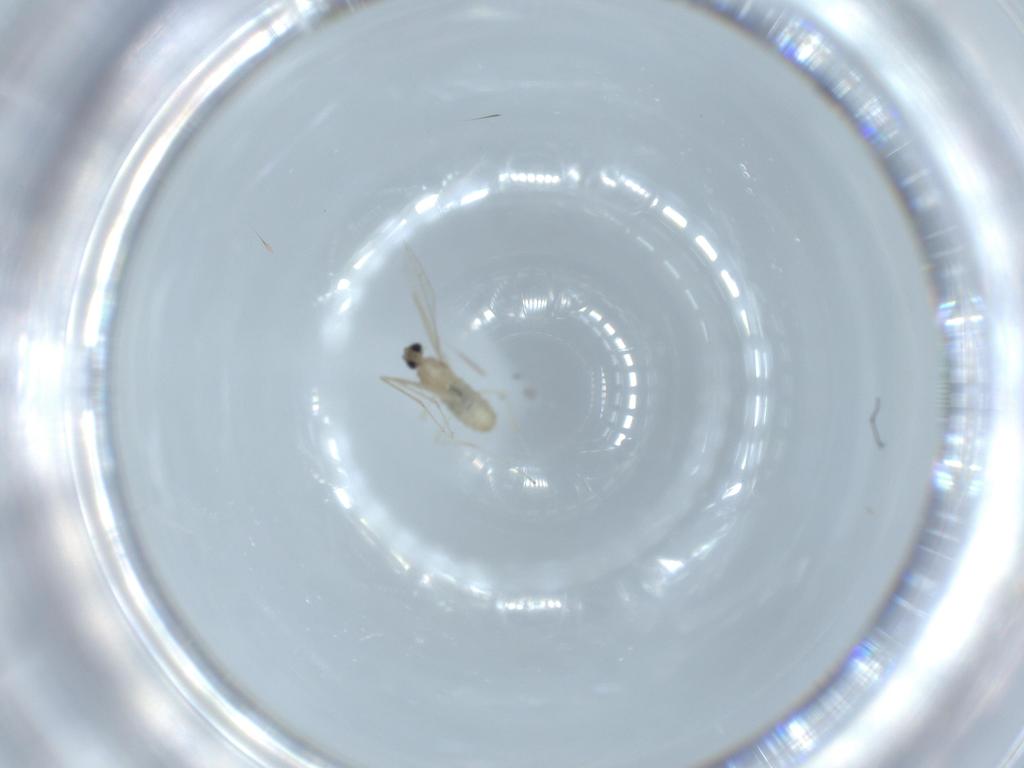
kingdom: Animalia
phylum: Arthropoda
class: Insecta
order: Diptera
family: Cecidomyiidae
